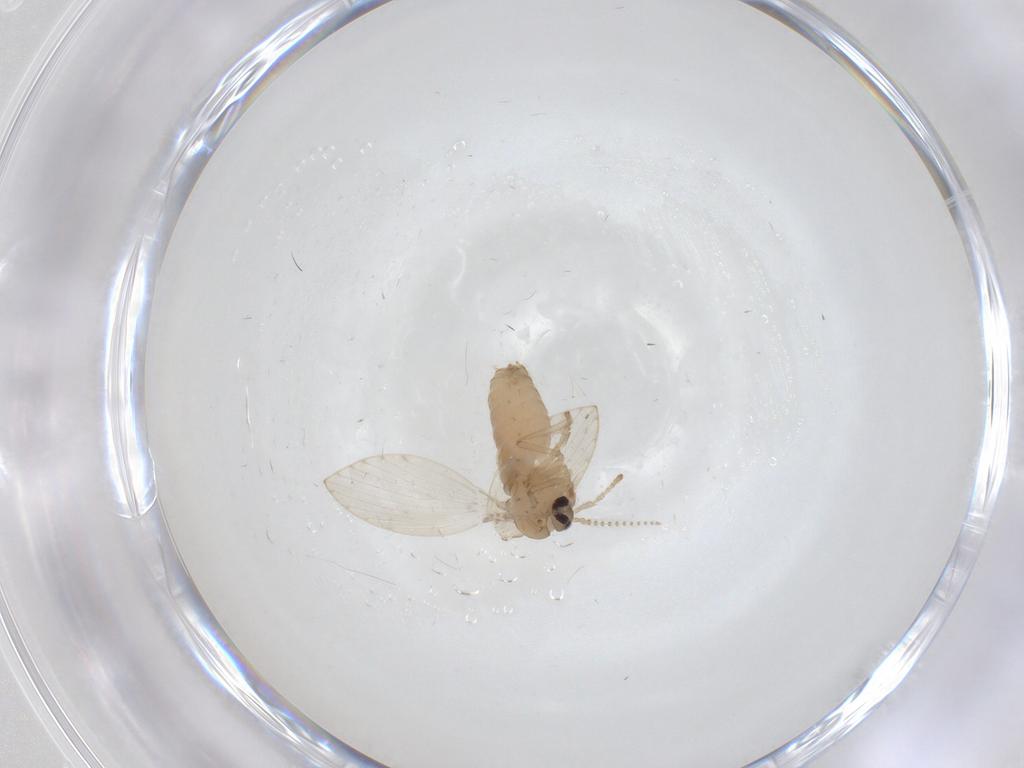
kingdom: Animalia
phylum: Arthropoda
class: Insecta
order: Diptera
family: Psychodidae
